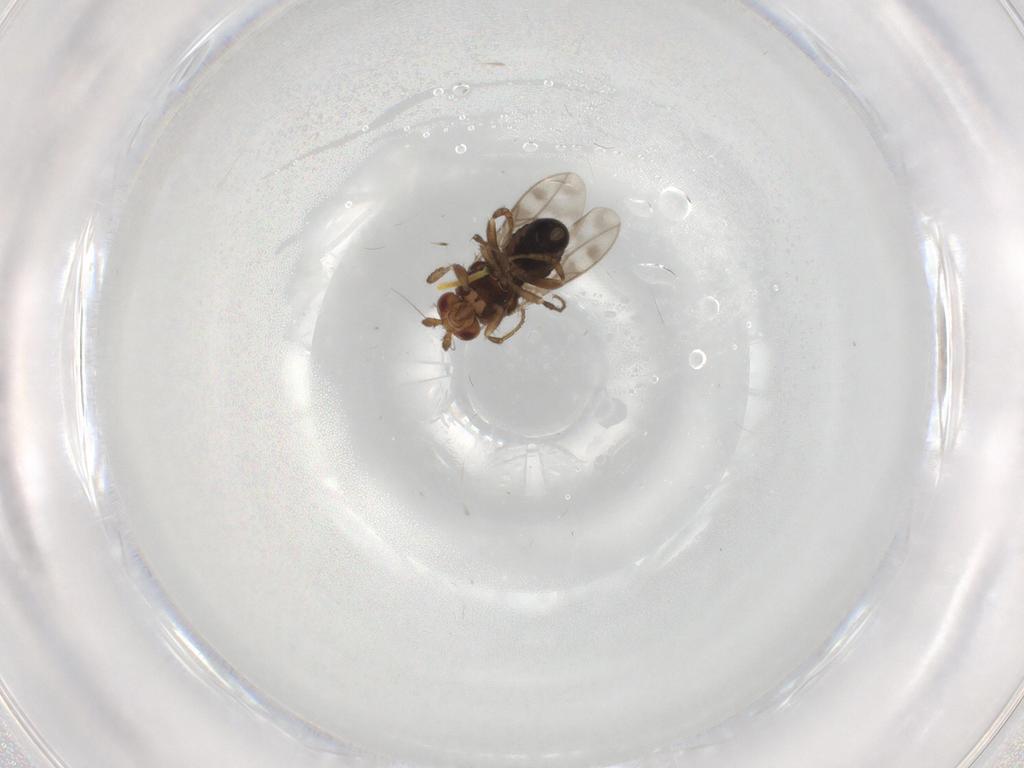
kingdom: Animalia
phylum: Arthropoda
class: Insecta
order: Diptera
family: Sphaeroceridae
